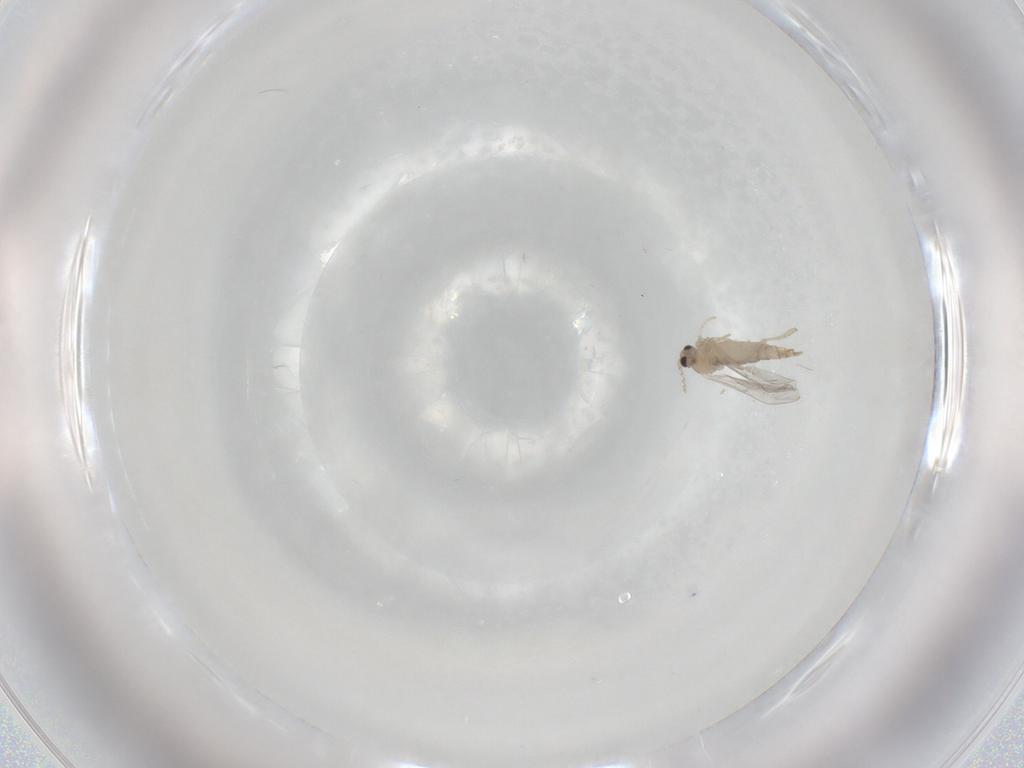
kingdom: Animalia
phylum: Arthropoda
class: Insecta
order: Diptera
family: Cecidomyiidae
